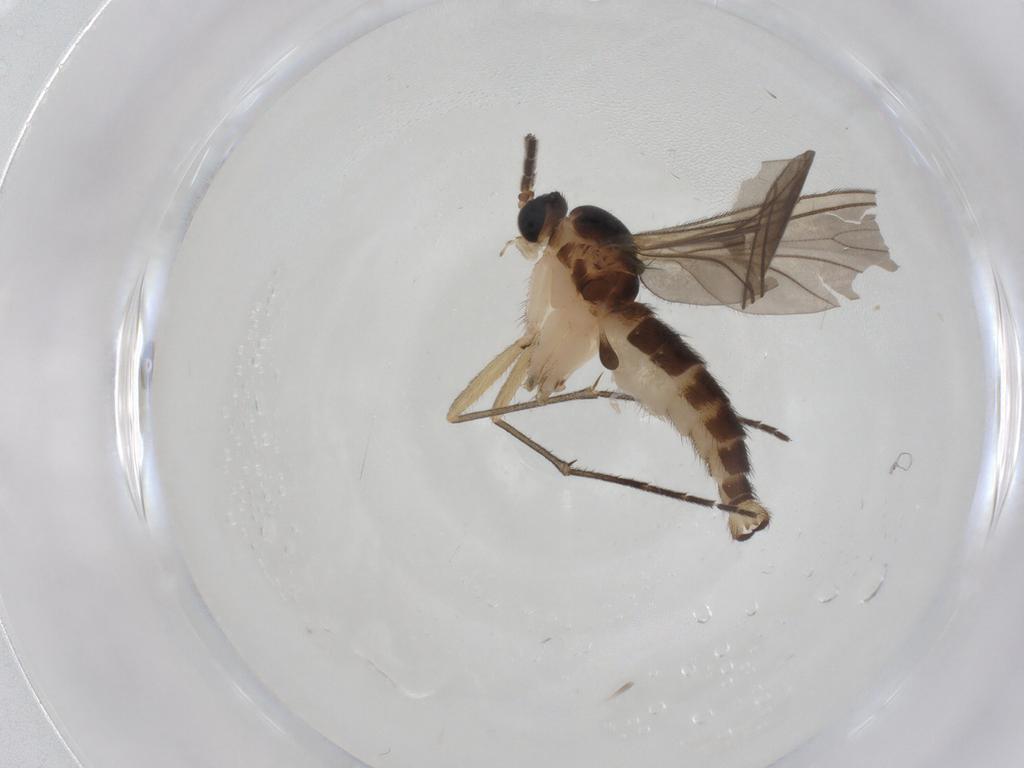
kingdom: Animalia
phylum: Arthropoda
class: Insecta
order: Diptera
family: Sciaridae
